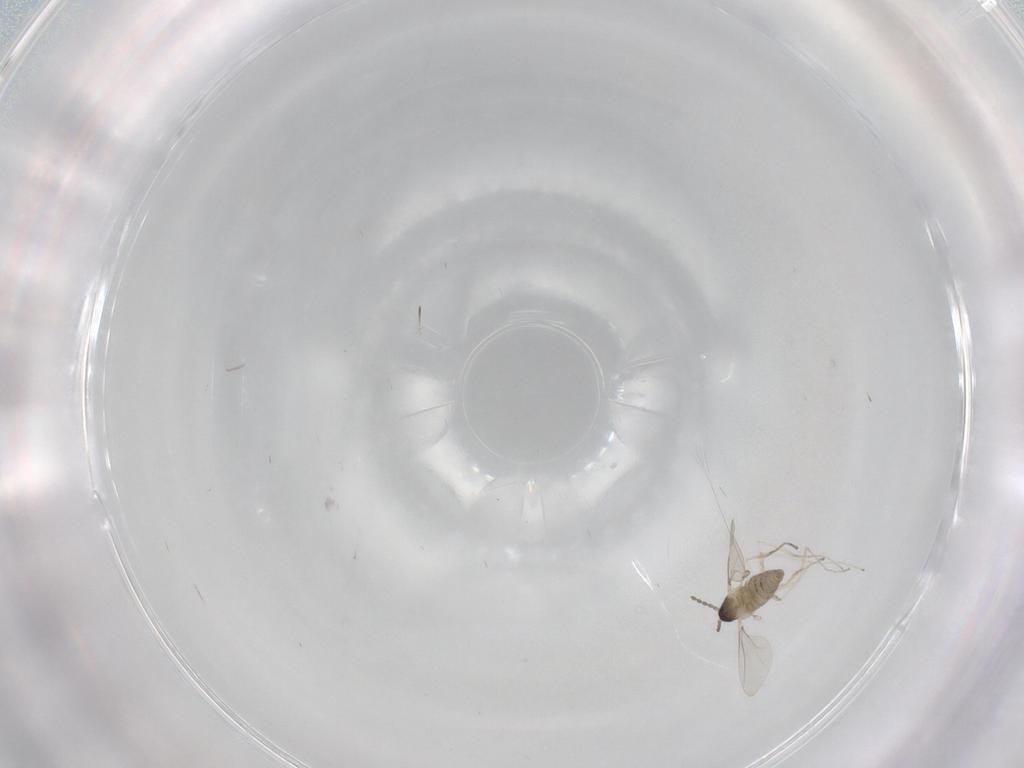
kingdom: Animalia
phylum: Arthropoda
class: Insecta
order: Diptera
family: Cecidomyiidae
